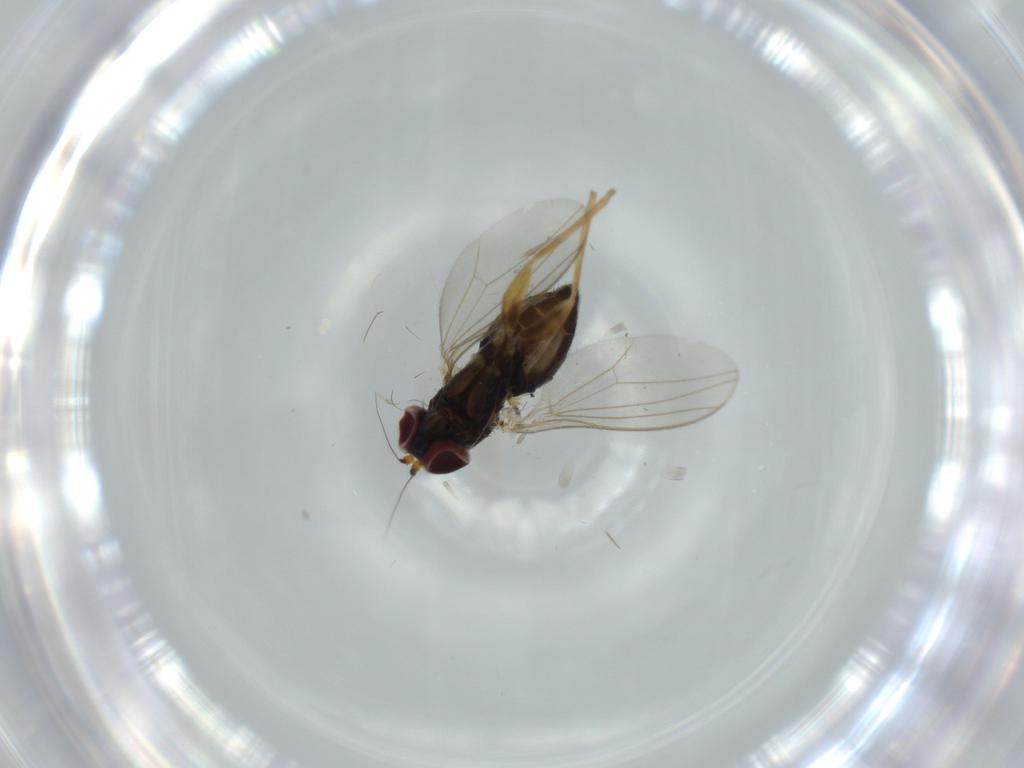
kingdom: Animalia
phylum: Arthropoda
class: Insecta
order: Diptera
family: Dolichopodidae
